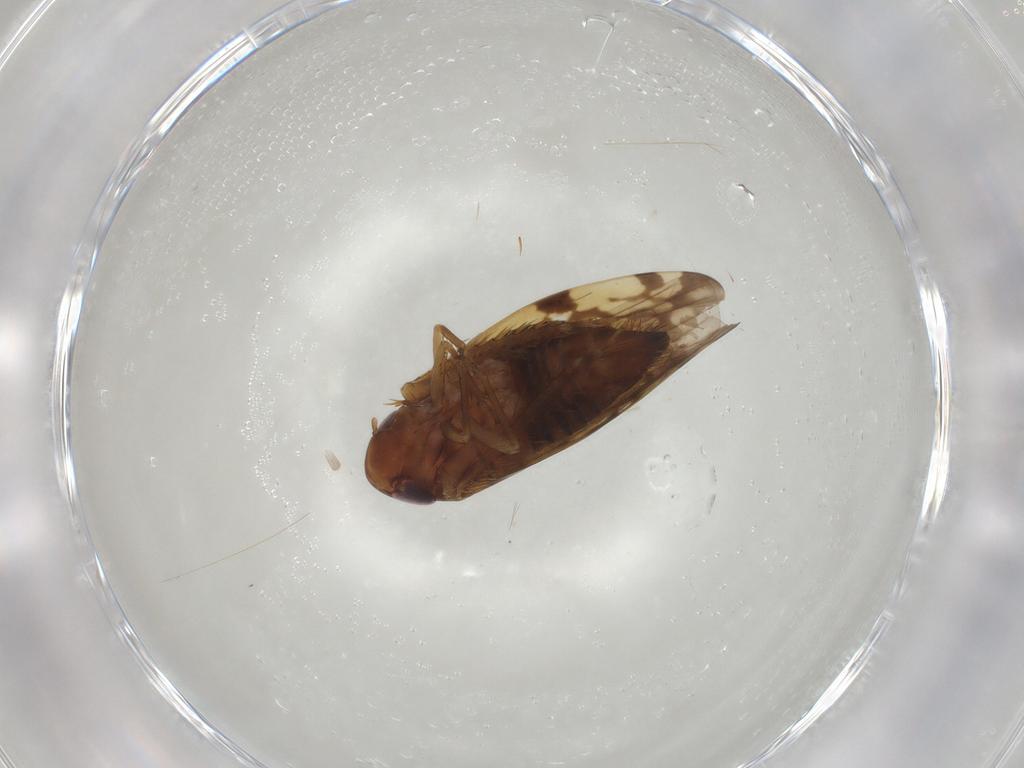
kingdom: Animalia
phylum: Arthropoda
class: Insecta
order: Hemiptera
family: Cicadellidae
